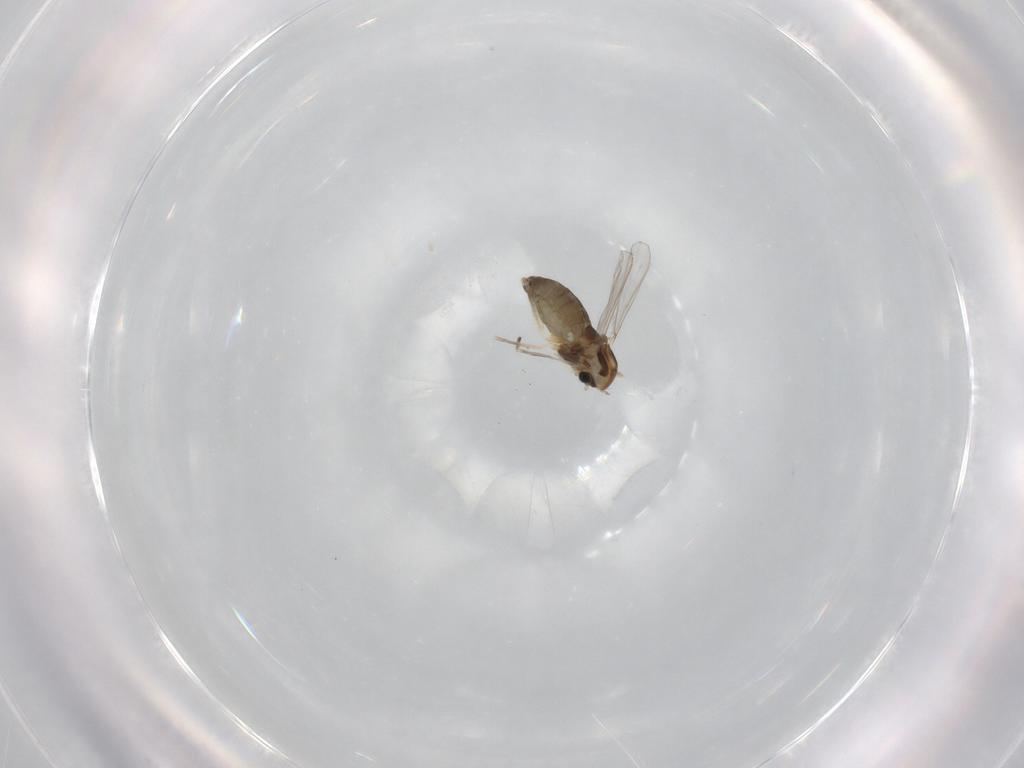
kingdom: Animalia
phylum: Arthropoda
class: Insecta
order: Diptera
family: Chironomidae
